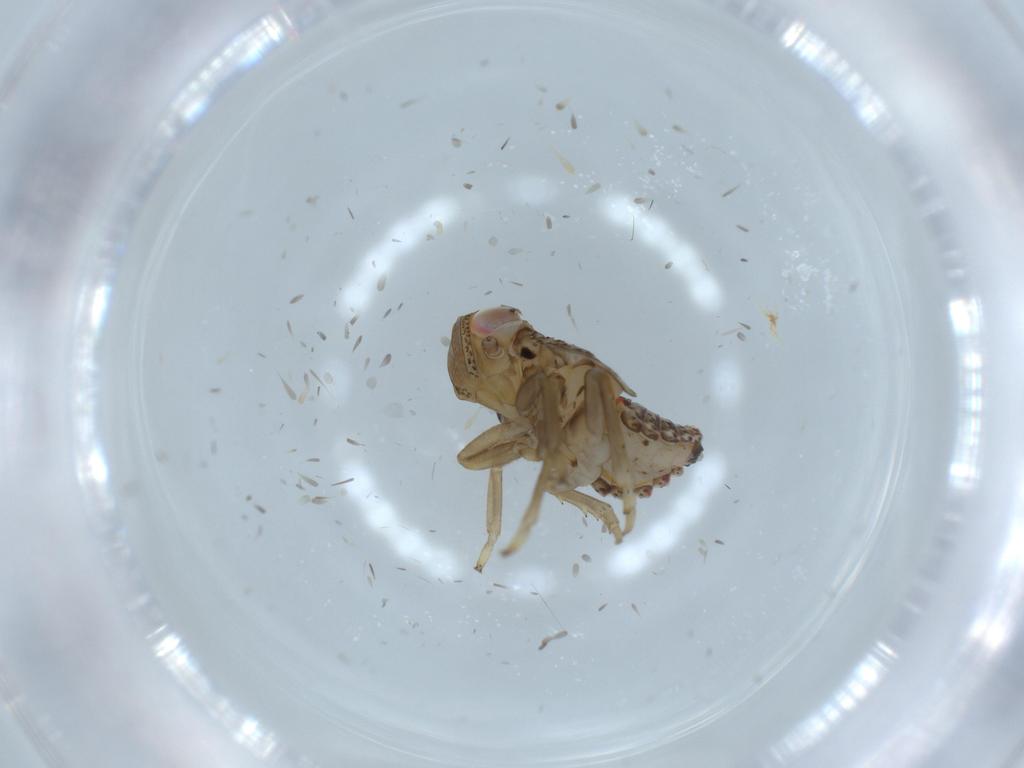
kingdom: Animalia
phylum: Arthropoda
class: Insecta
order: Hemiptera
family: Issidae
